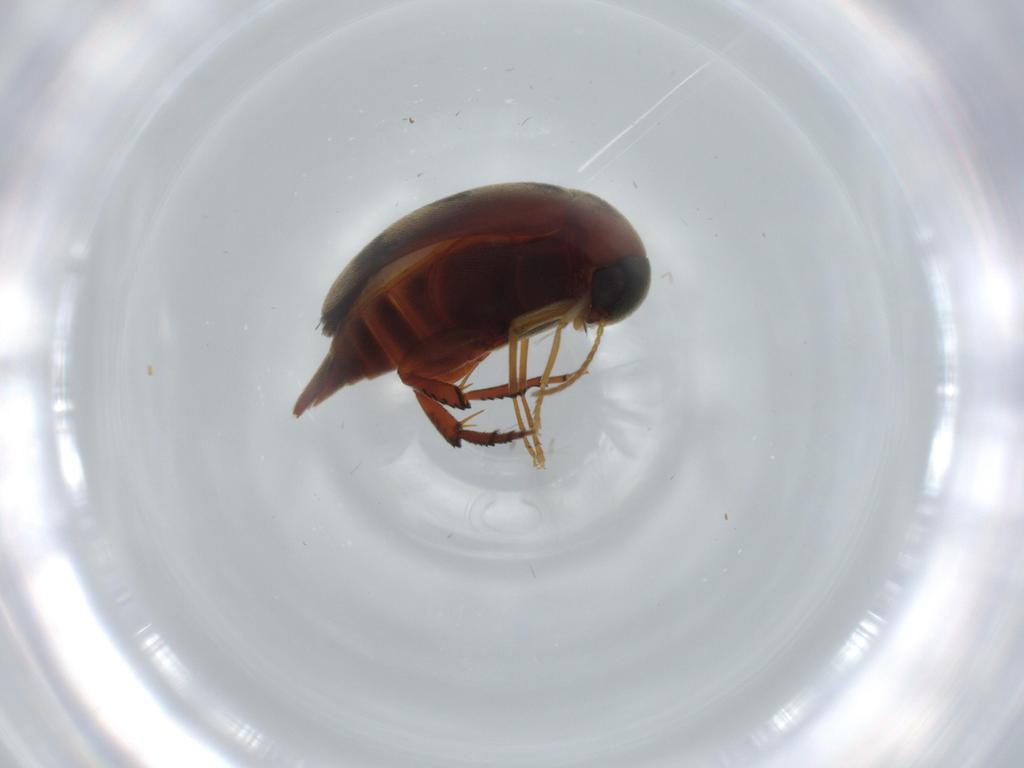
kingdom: Animalia
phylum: Arthropoda
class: Insecta
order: Coleoptera
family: Mordellidae
